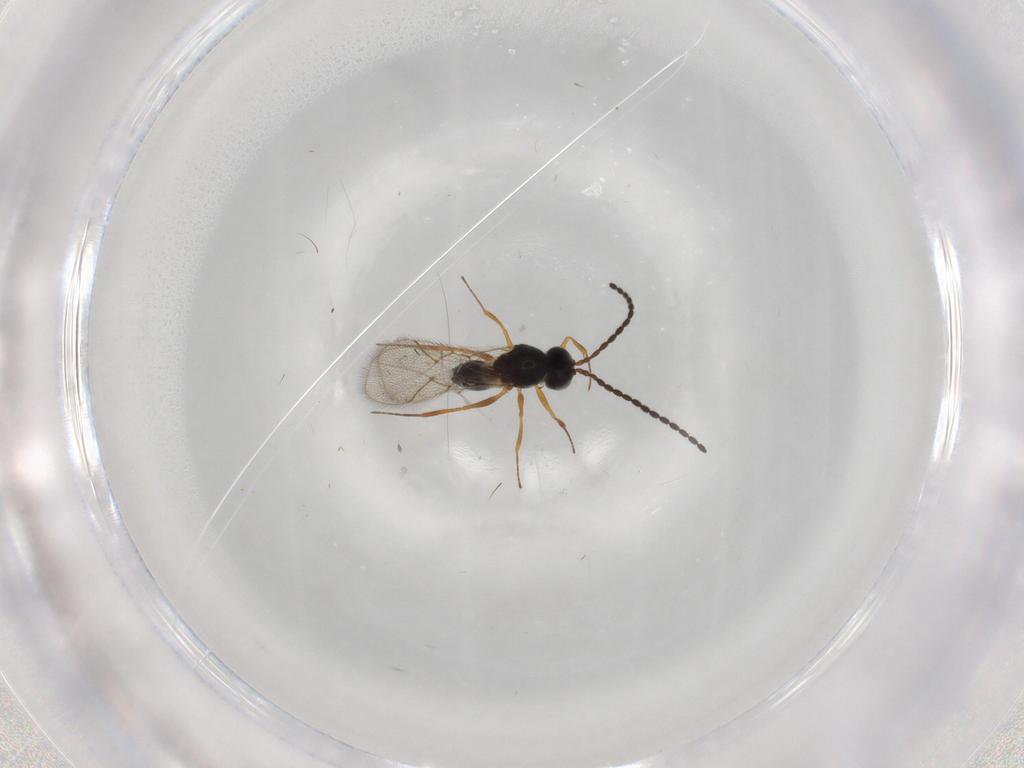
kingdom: Animalia
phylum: Arthropoda
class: Insecta
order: Hymenoptera
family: Figitidae
